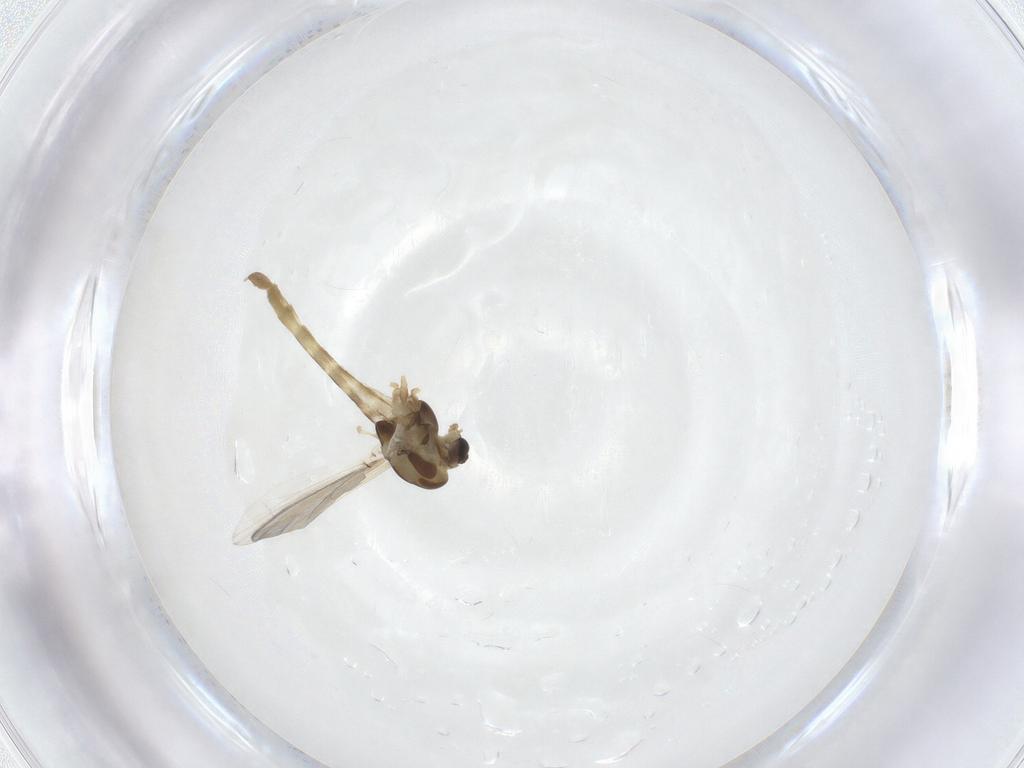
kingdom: Animalia
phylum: Arthropoda
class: Insecta
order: Diptera
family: Chironomidae
